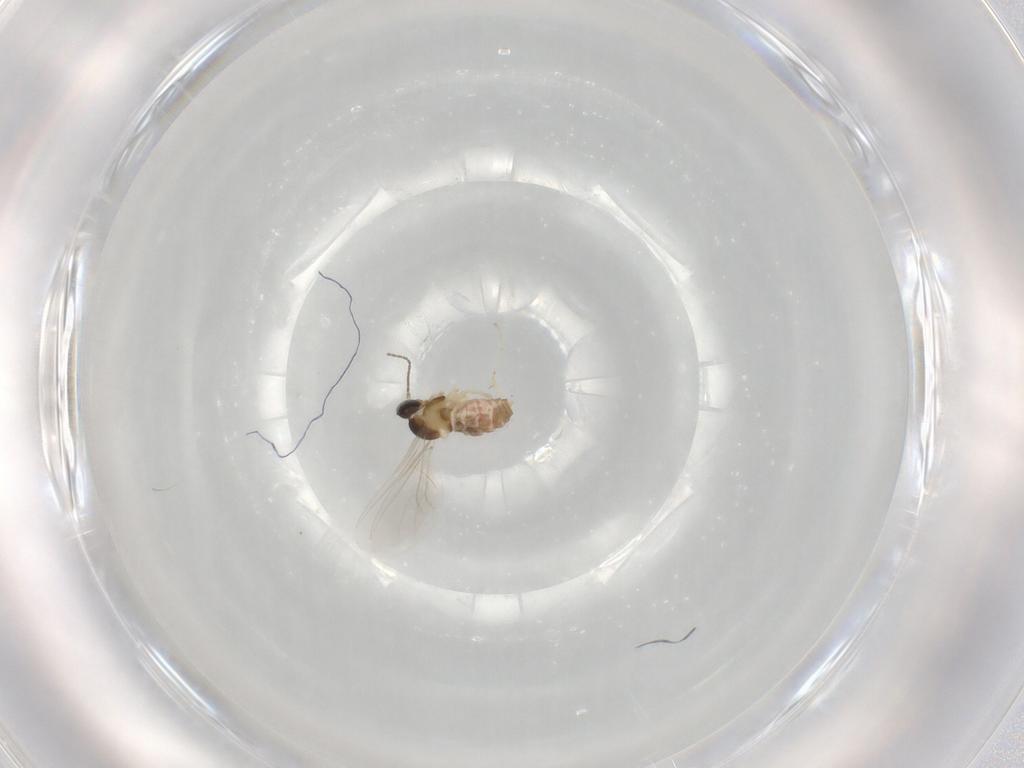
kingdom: Animalia
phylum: Arthropoda
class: Insecta
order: Diptera
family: Cecidomyiidae
